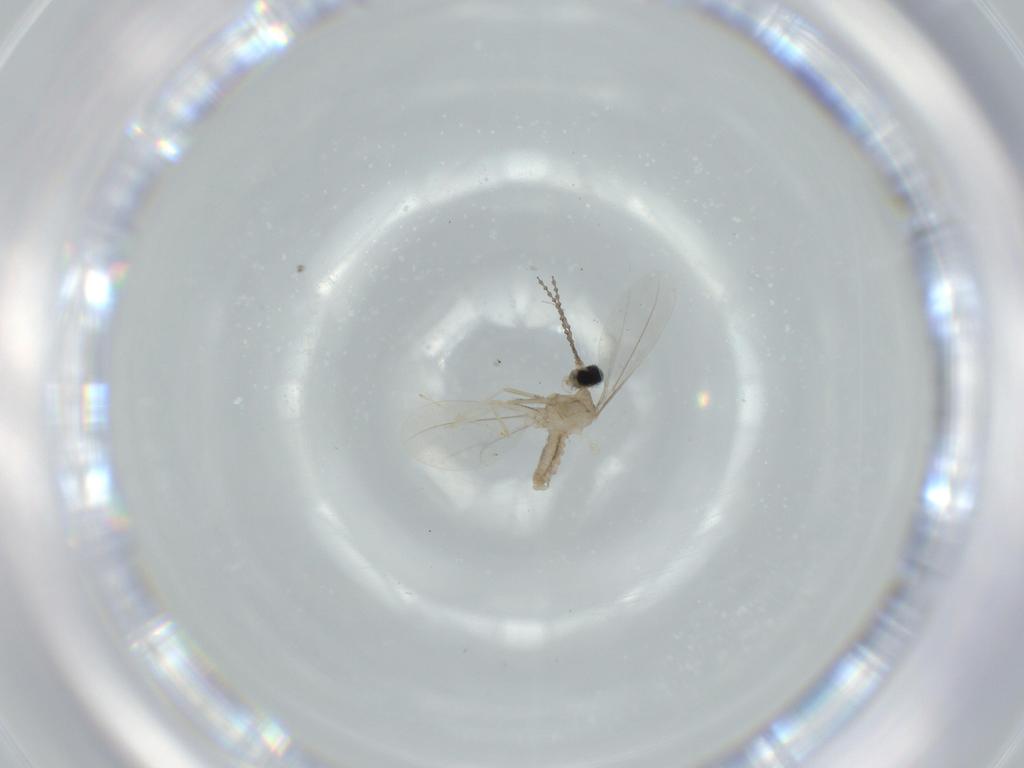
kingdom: Animalia
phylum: Arthropoda
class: Insecta
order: Diptera
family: Cecidomyiidae
